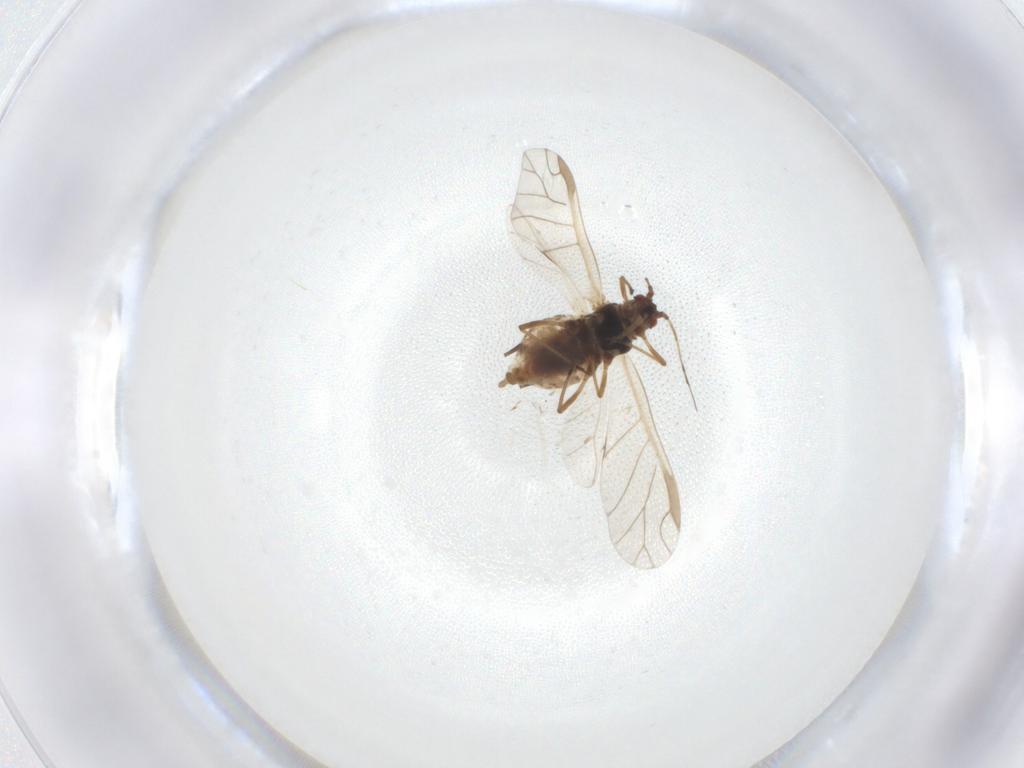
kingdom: Animalia
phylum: Arthropoda
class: Insecta
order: Hemiptera
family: Aphididae
